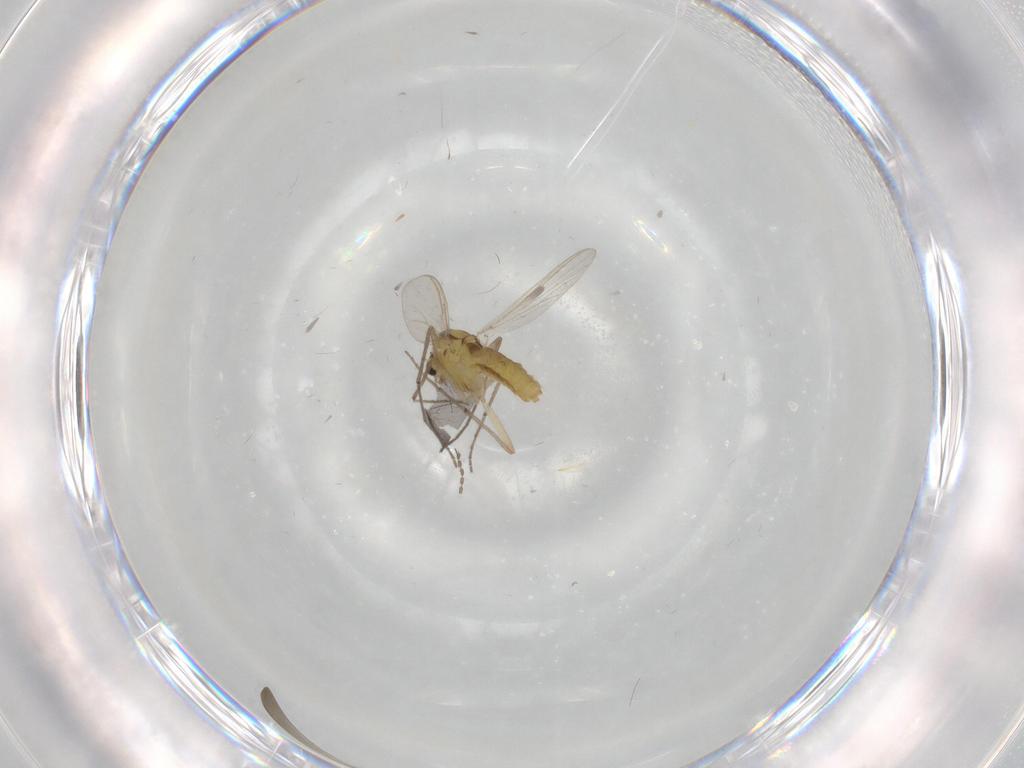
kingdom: Animalia
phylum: Arthropoda
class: Insecta
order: Diptera
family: Chironomidae
